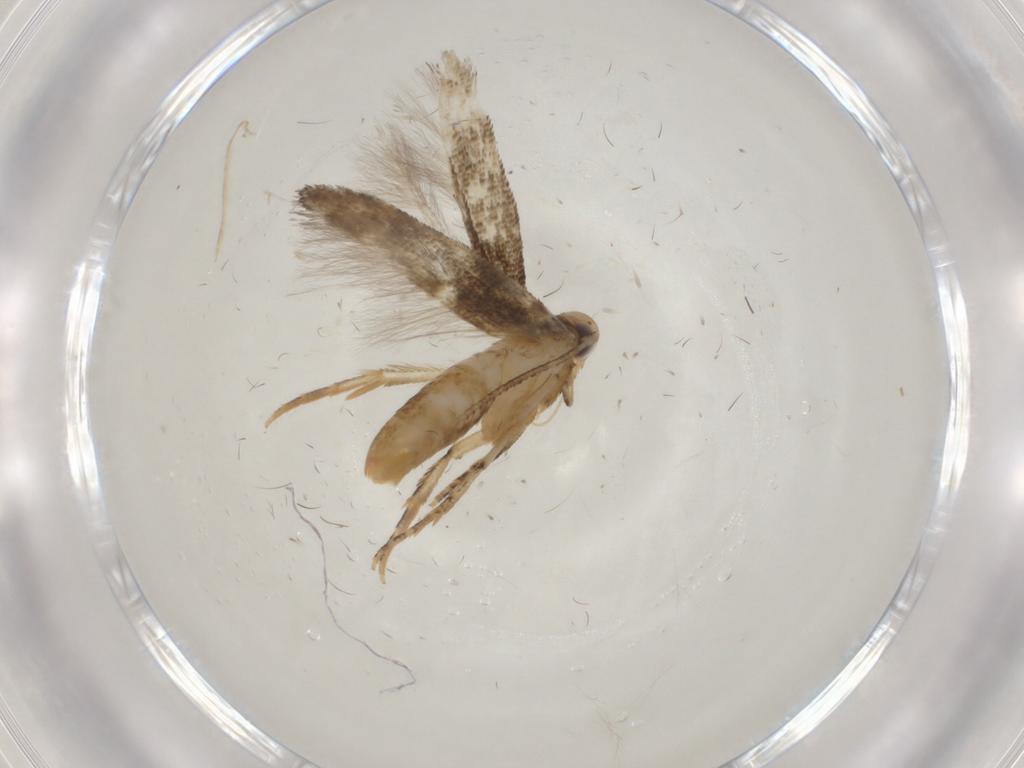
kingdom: Animalia
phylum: Arthropoda
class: Insecta
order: Lepidoptera
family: Cosmopterigidae
